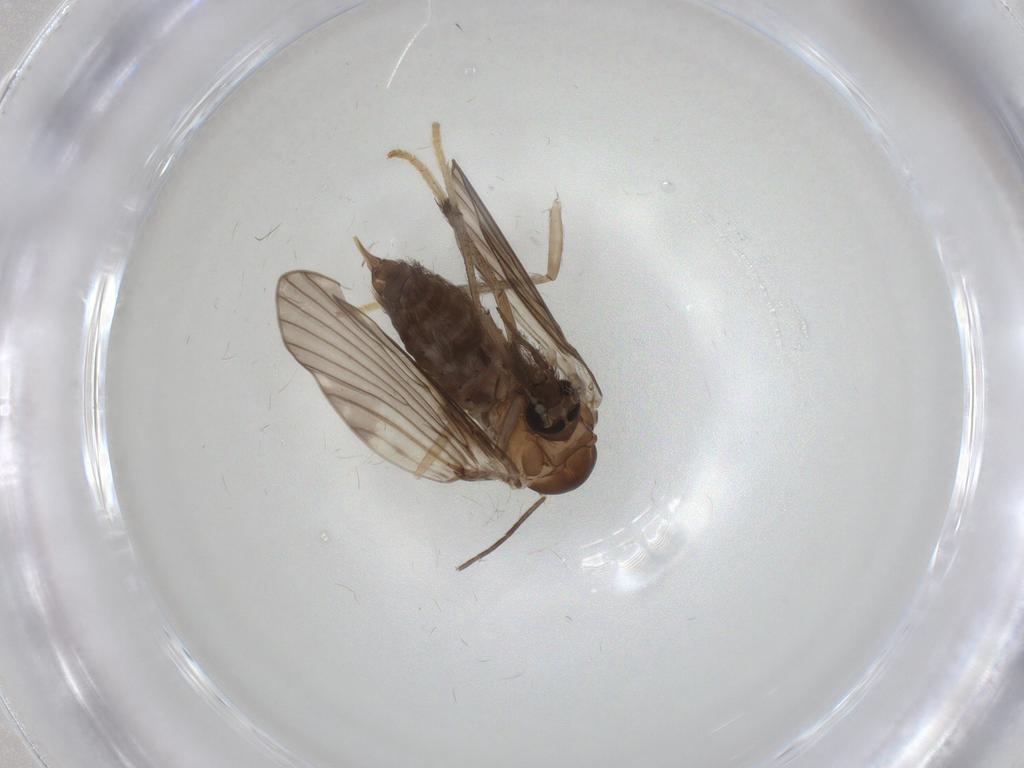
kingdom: Animalia
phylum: Arthropoda
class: Insecta
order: Diptera
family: Psychodidae
